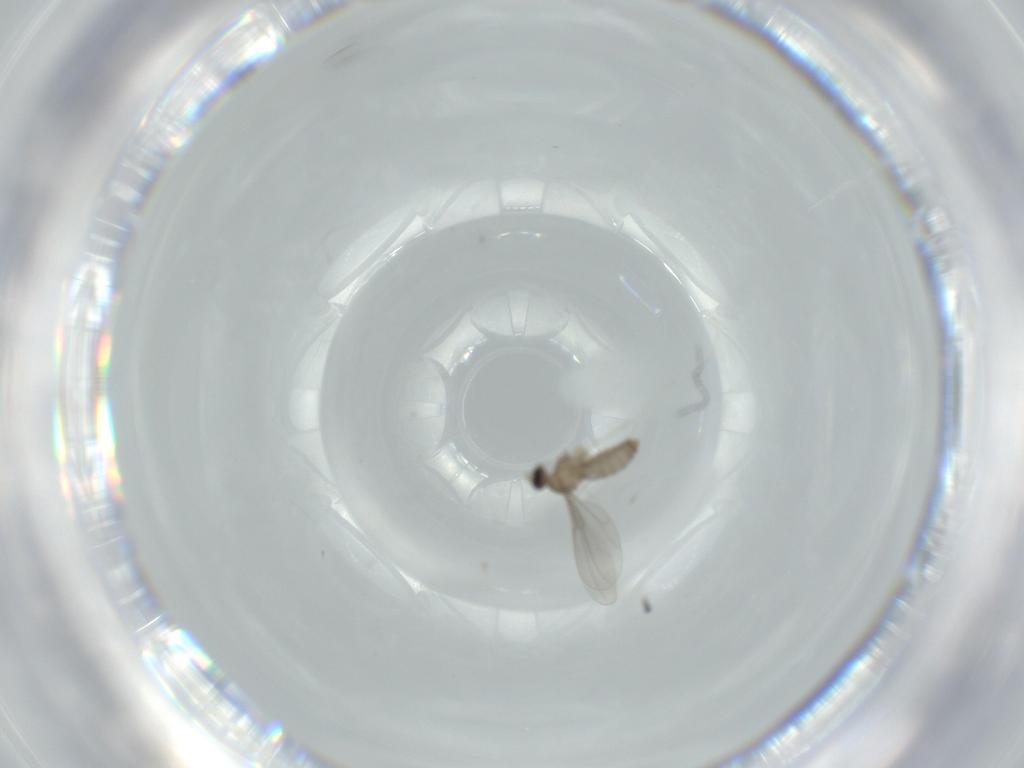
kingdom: Animalia
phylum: Arthropoda
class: Insecta
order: Diptera
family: Cecidomyiidae
